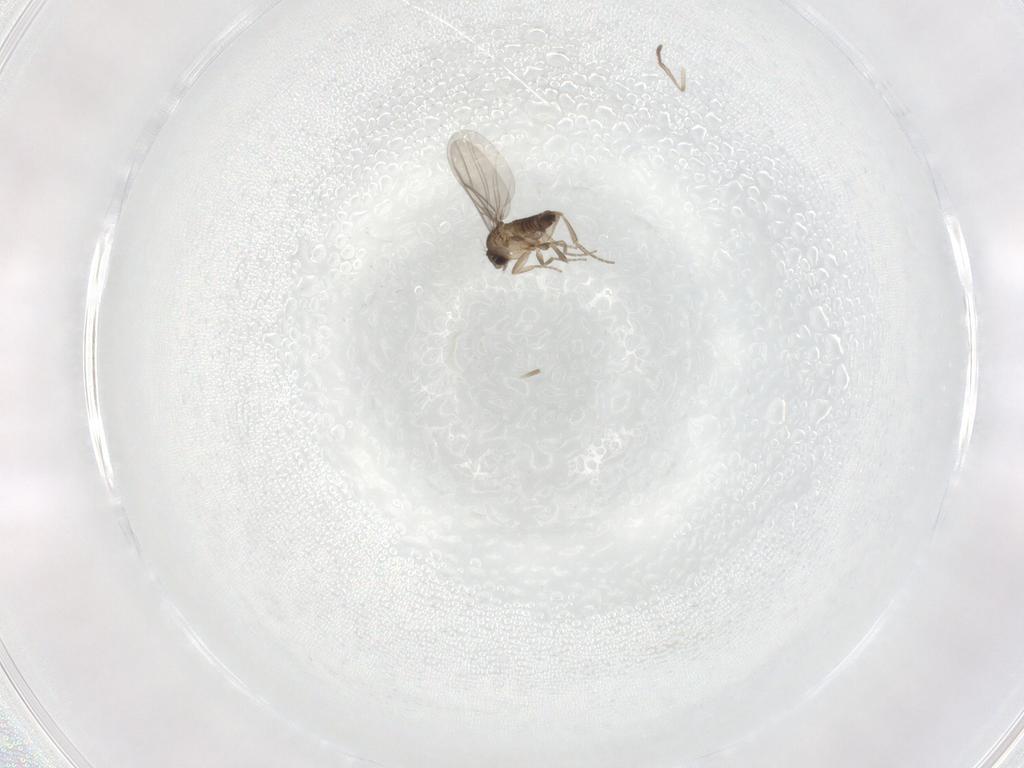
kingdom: Animalia
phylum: Arthropoda
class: Insecta
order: Diptera
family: Phoridae
